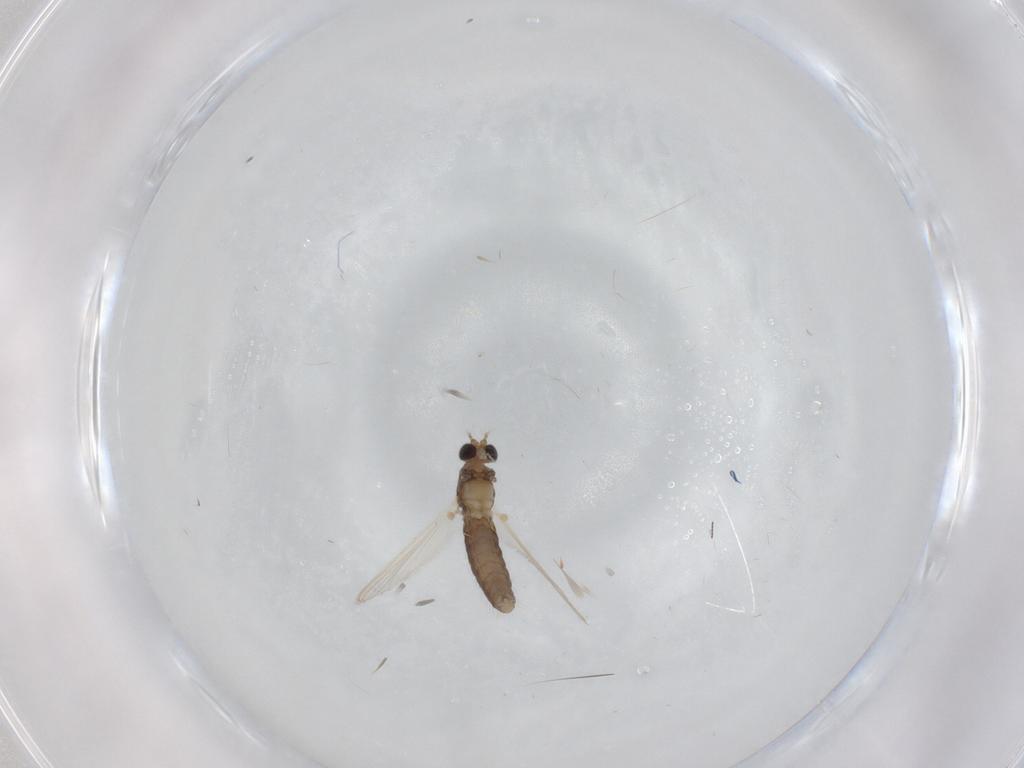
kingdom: Animalia
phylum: Arthropoda
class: Insecta
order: Diptera
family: Chironomidae
